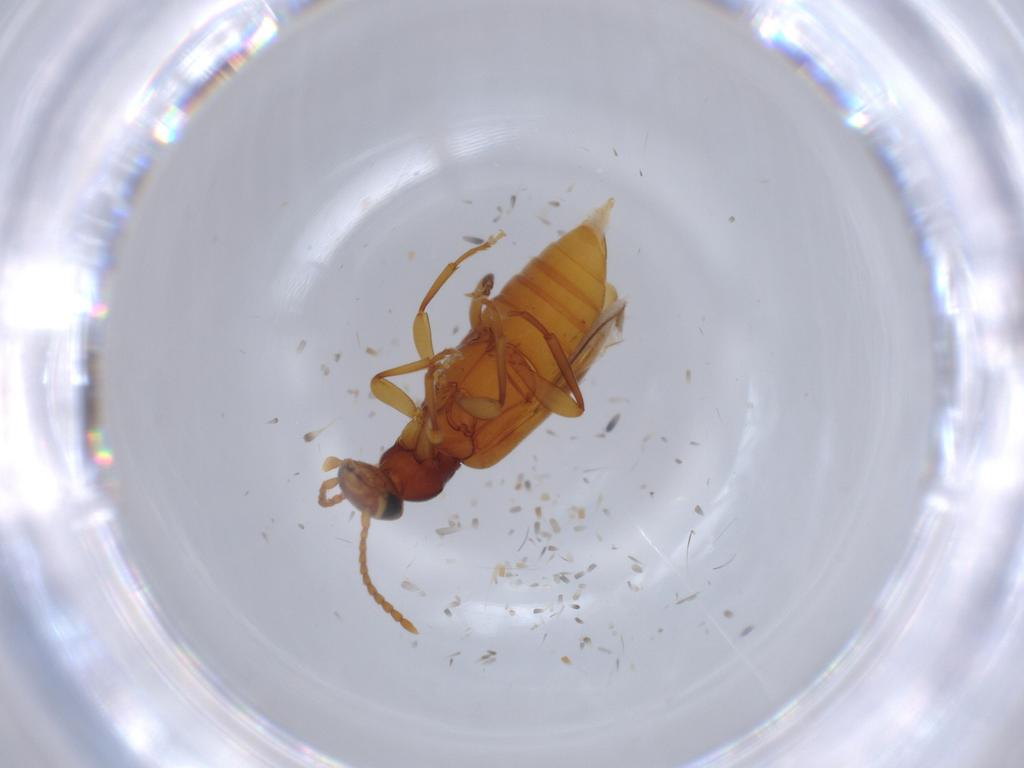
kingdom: Animalia
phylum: Arthropoda
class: Insecta
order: Coleoptera
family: Anthicidae
